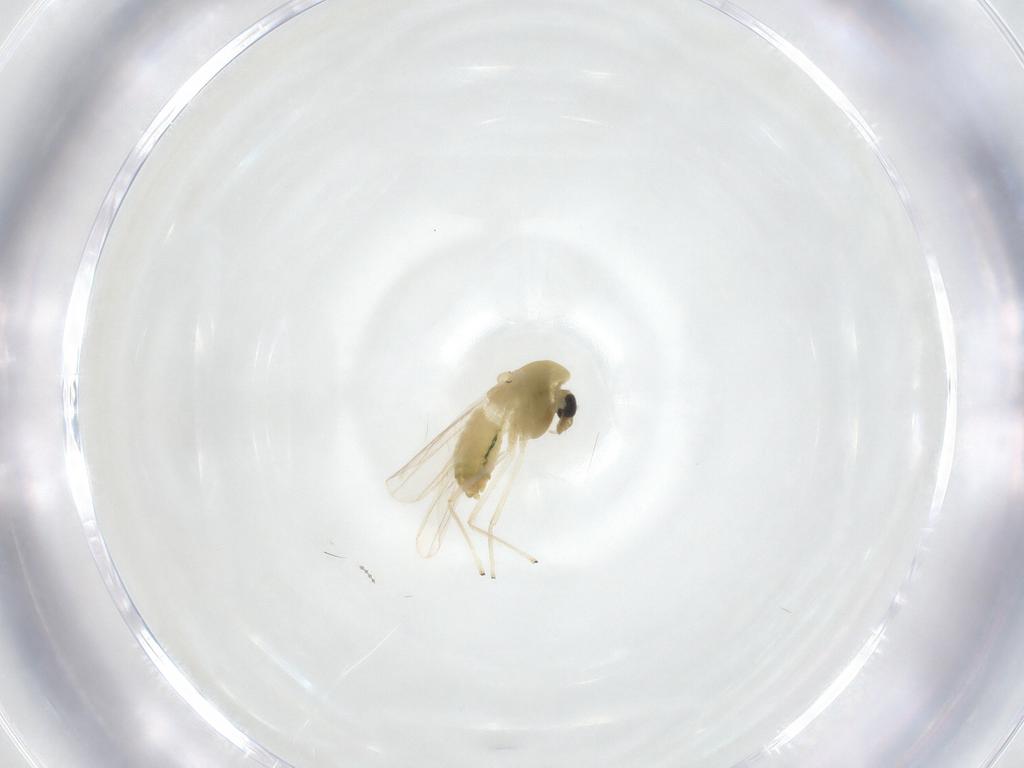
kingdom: Animalia
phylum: Arthropoda
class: Insecta
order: Diptera
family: Chironomidae
